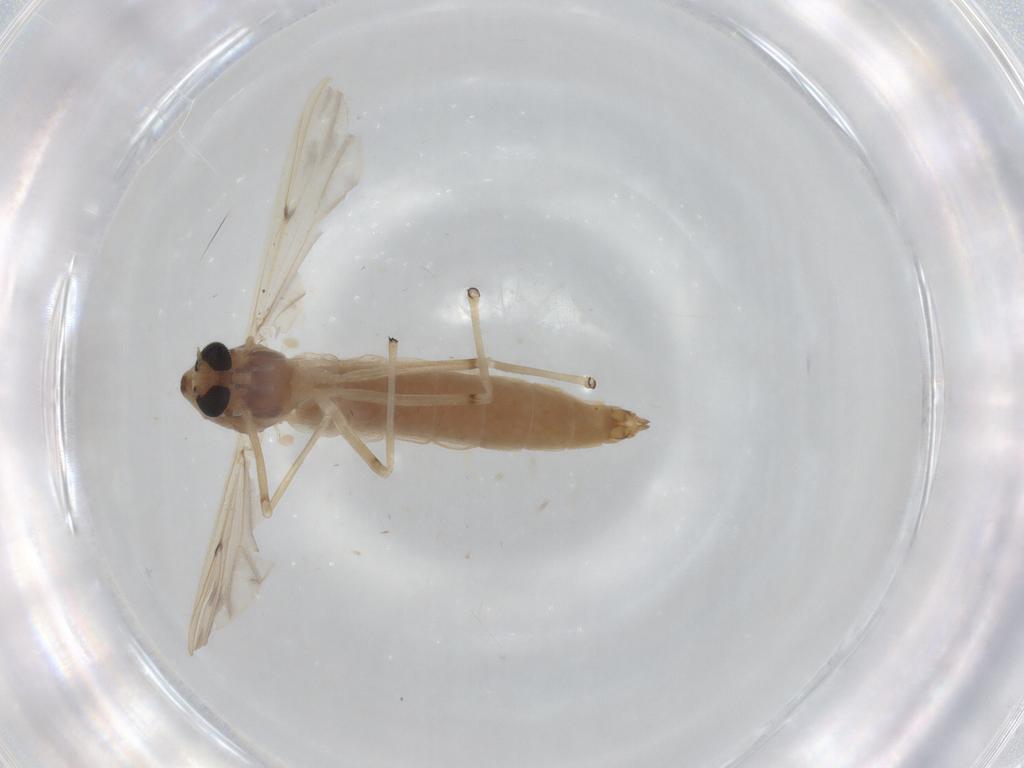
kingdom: Animalia
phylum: Arthropoda
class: Insecta
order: Diptera
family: Chironomidae
